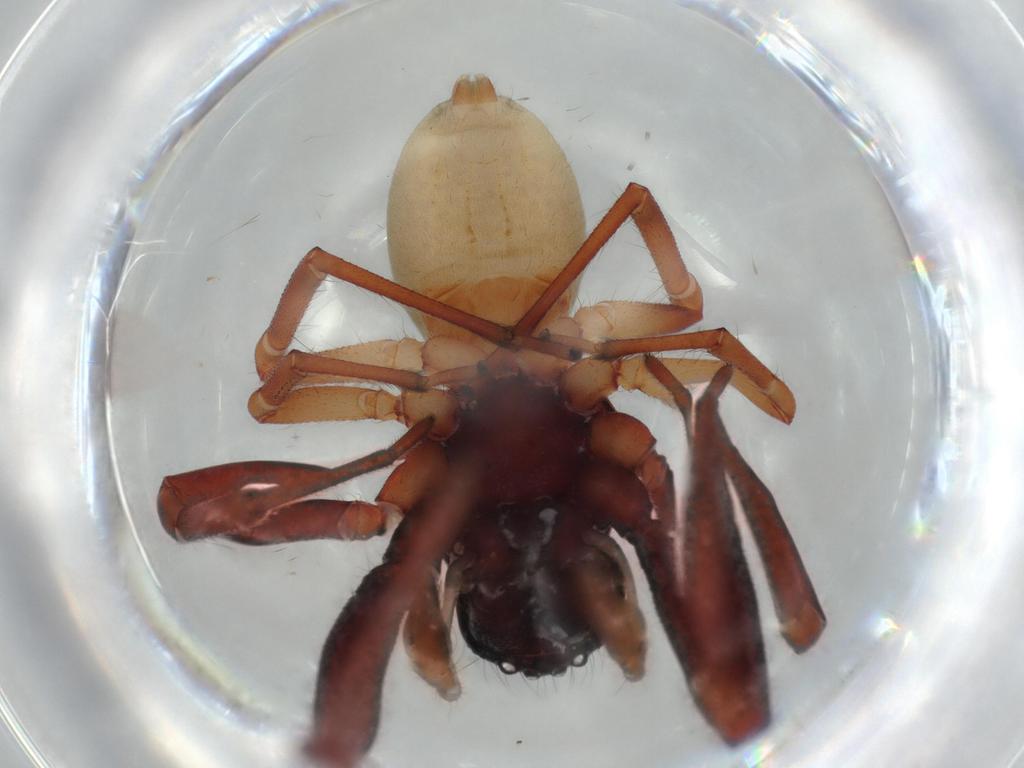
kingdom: Animalia
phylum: Arthropoda
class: Arachnida
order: Araneae
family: Trachelidae
